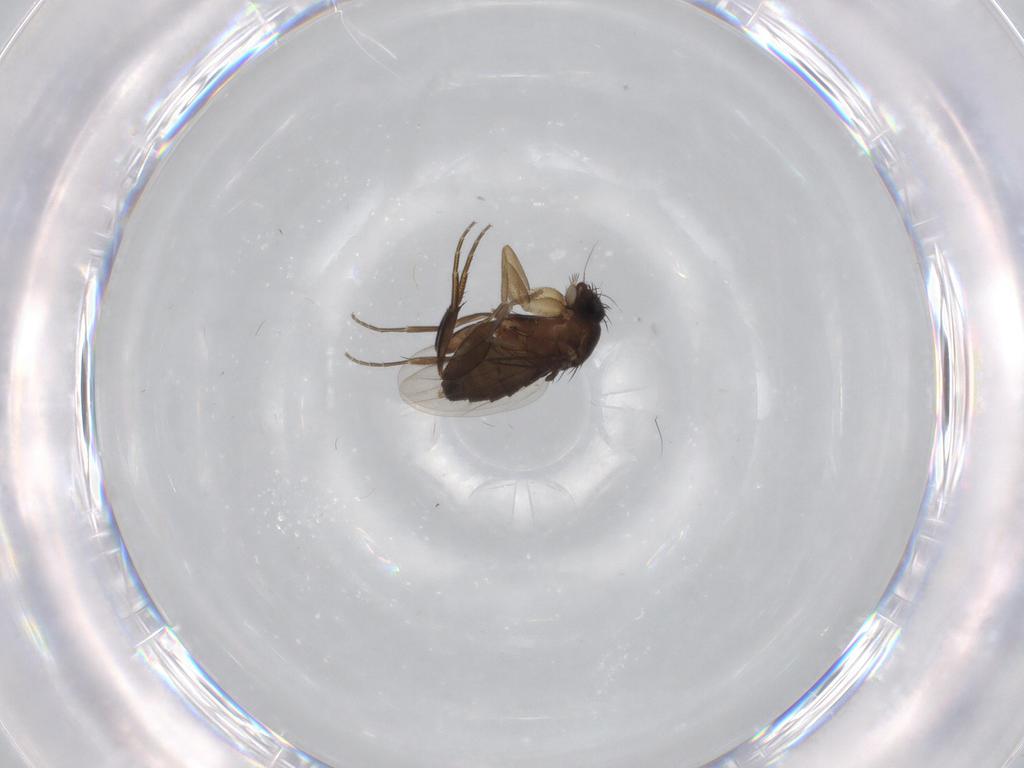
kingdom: Animalia
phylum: Arthropoda
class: Insecta
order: Diptera
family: Phoridae
